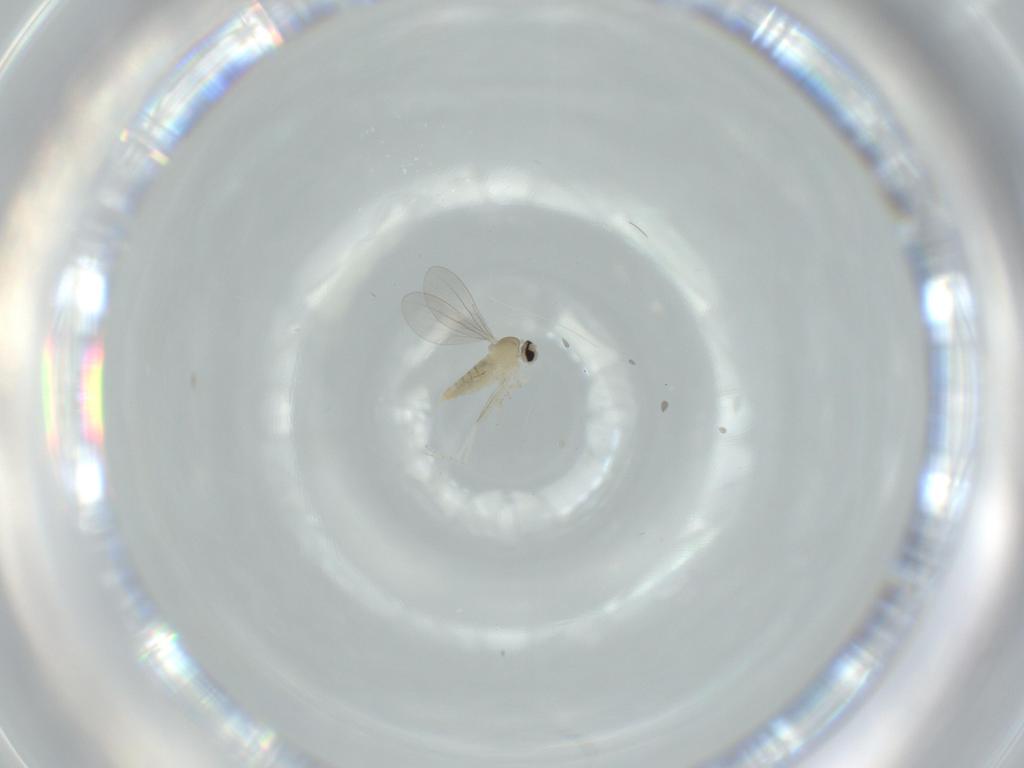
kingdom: Animalia
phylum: Arthropoda
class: Insecta
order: Diptera
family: Cecidomyiidae
